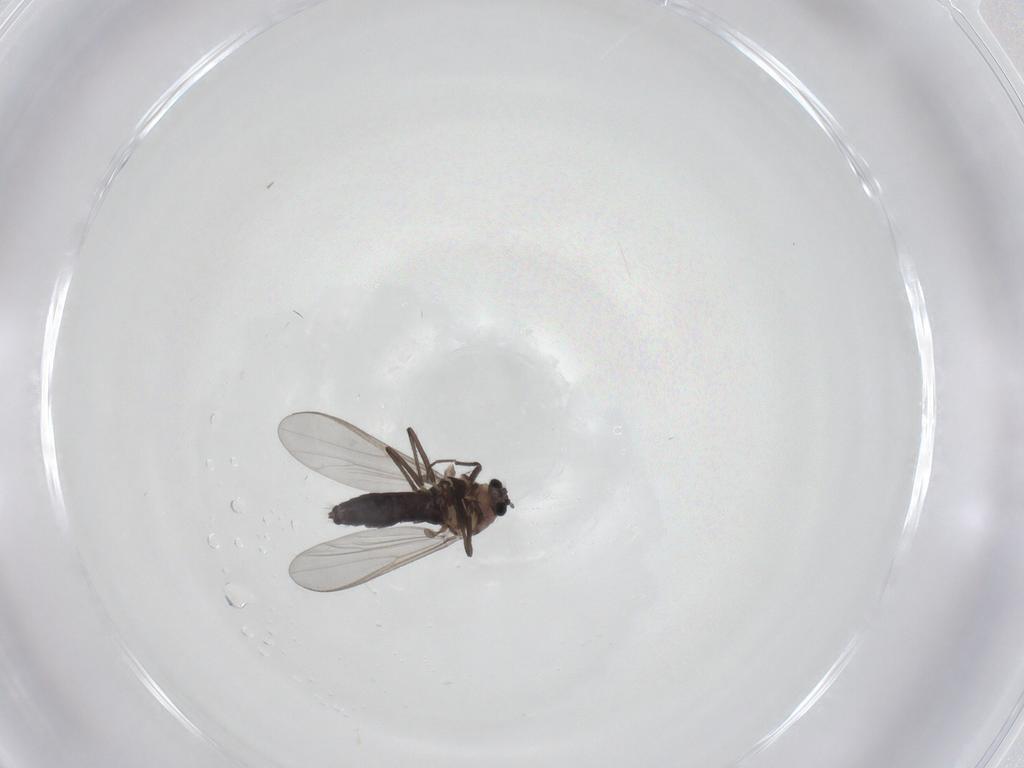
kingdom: Animalia
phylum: Arthropoda
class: Insecta
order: Diptera
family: Chironomidae
